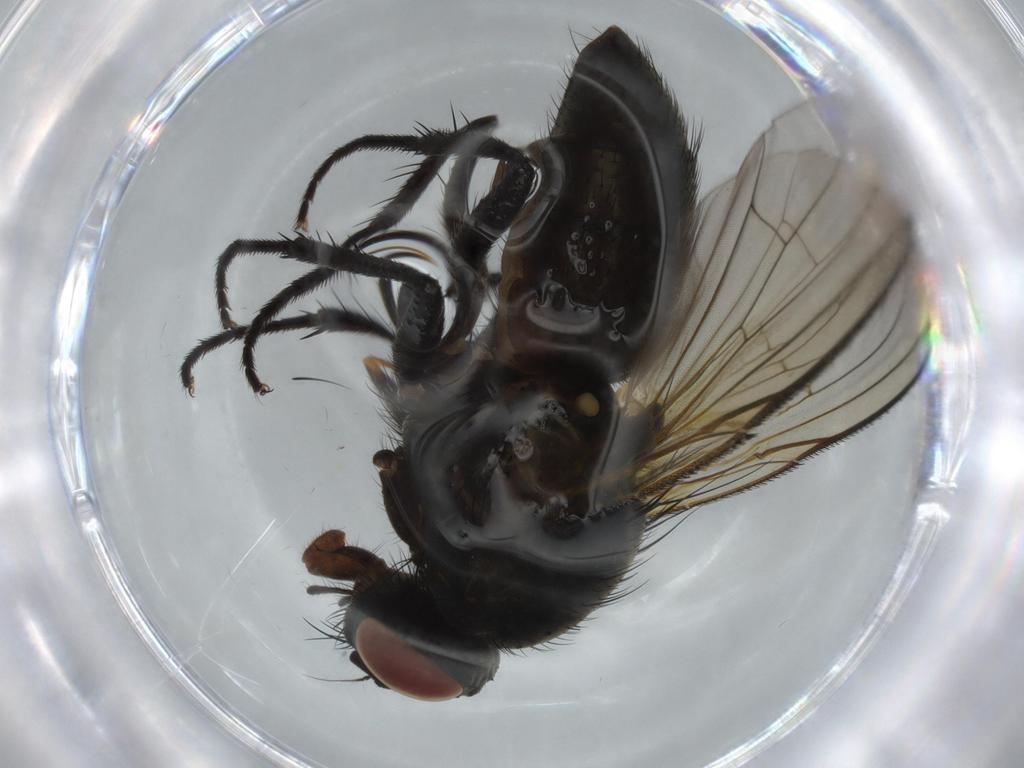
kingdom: Animalia
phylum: Arthropoda
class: Insecta
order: Diptera
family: Muscidae
